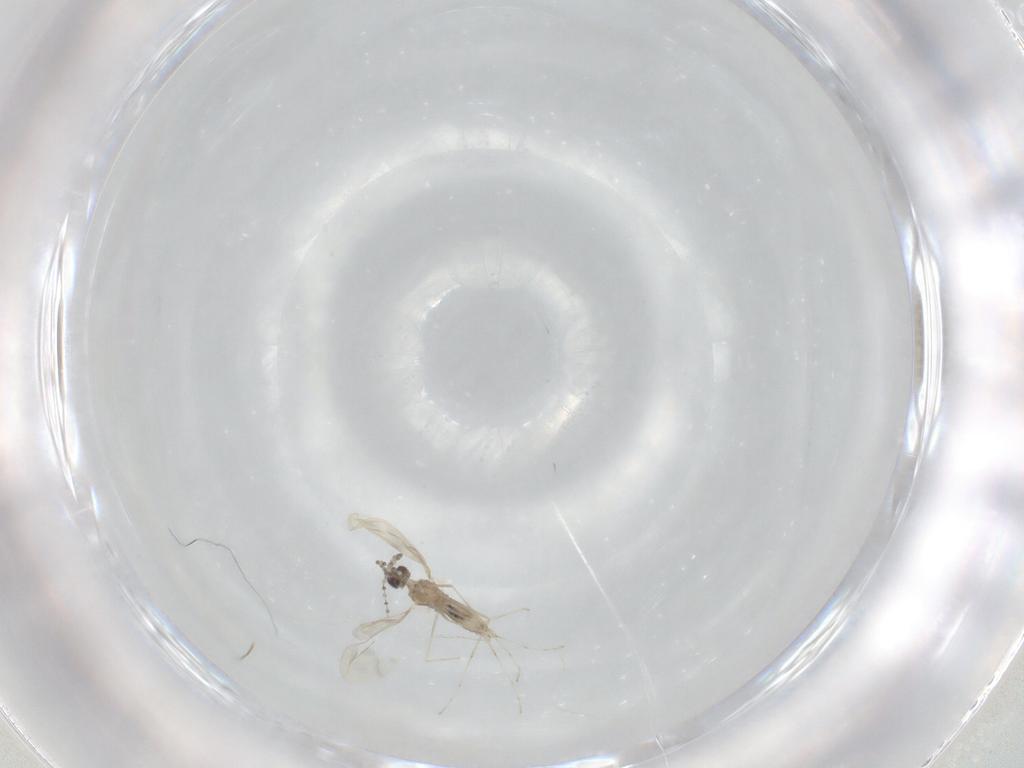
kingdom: Animalia
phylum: Arthropoda
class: Insecta
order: Diptera
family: Cecidomyiidae
